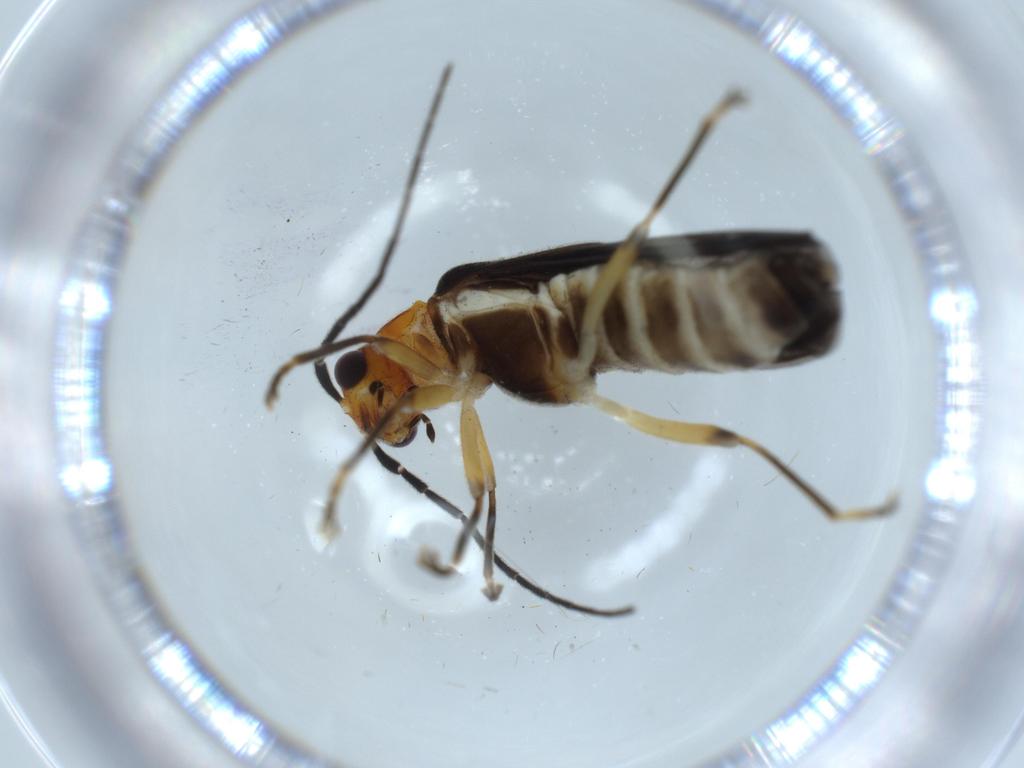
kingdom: Animalia
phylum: Arthropoda
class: Insecta
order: Coleoptera
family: Cantharidae
